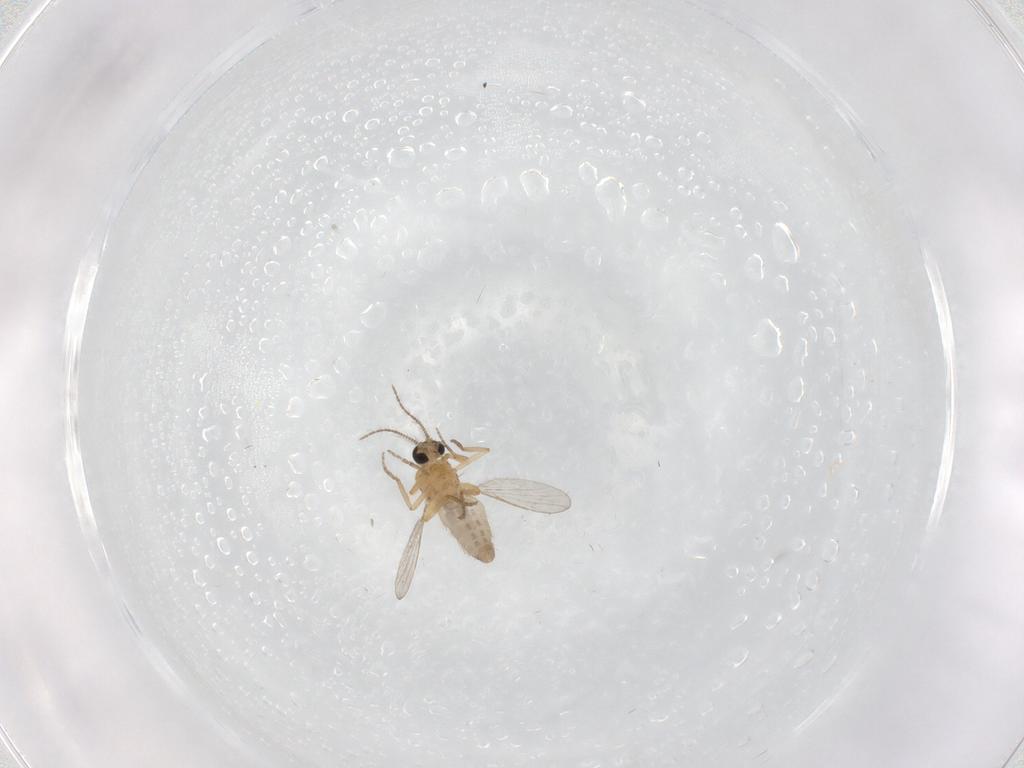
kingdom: Animalia
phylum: Arthropoda
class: Insecta
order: Diptera
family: Ceratopogonidae
